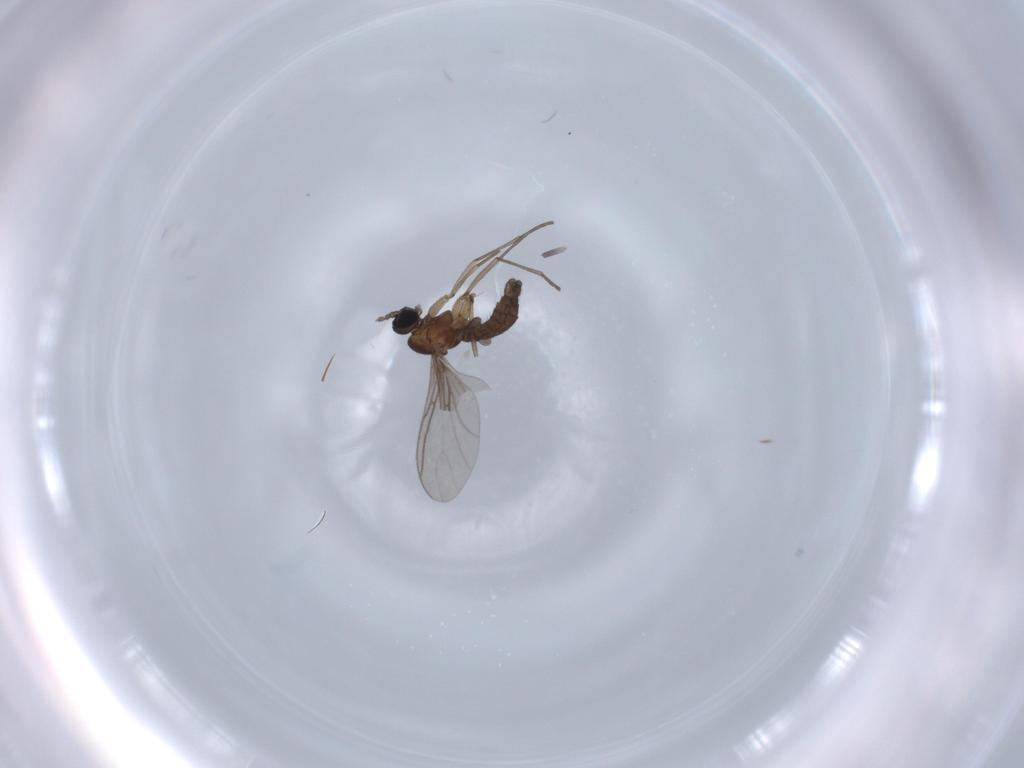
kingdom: Animalia
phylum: Arthropoda
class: Insecta
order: Diptera
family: Sciaridae
